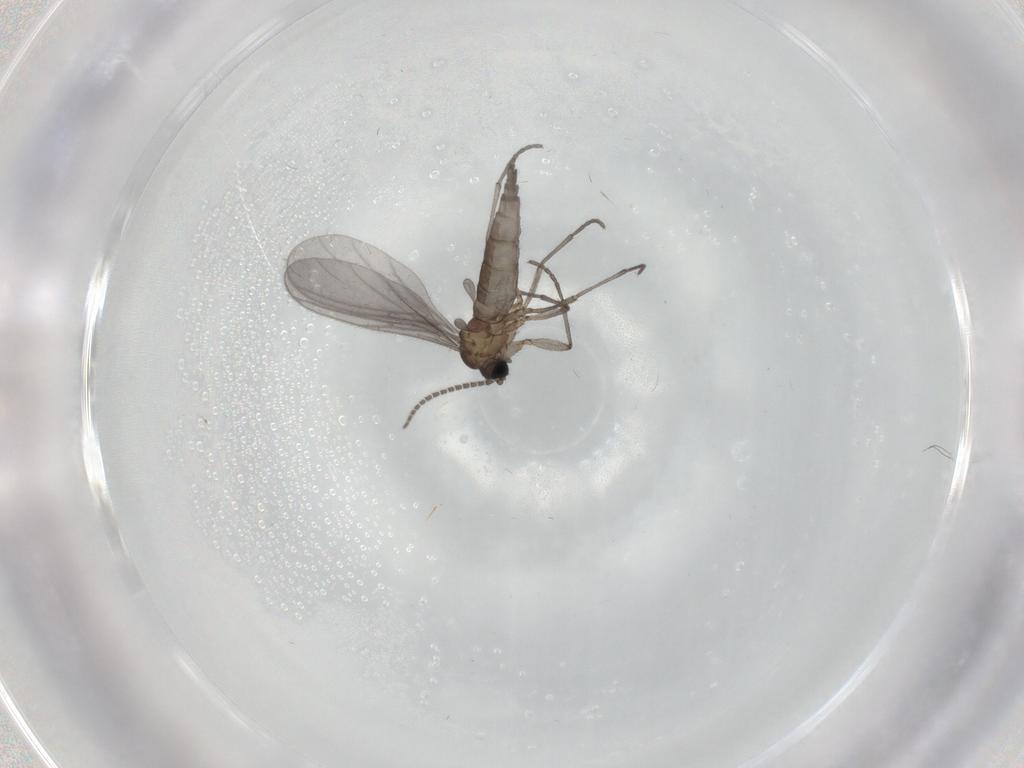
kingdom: Animalia
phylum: Arthropoda
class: Insecta
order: Diptera
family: Sciaridae
